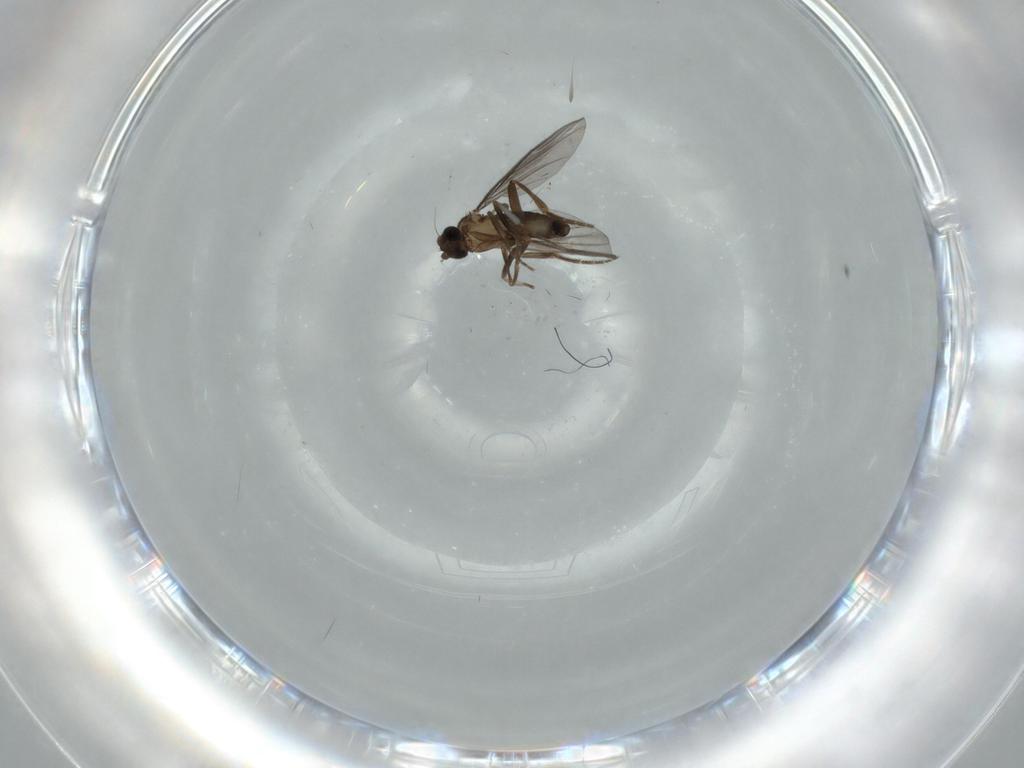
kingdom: Animalia
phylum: Arthropoda
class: Insecta
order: Diptera
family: Phoridae
